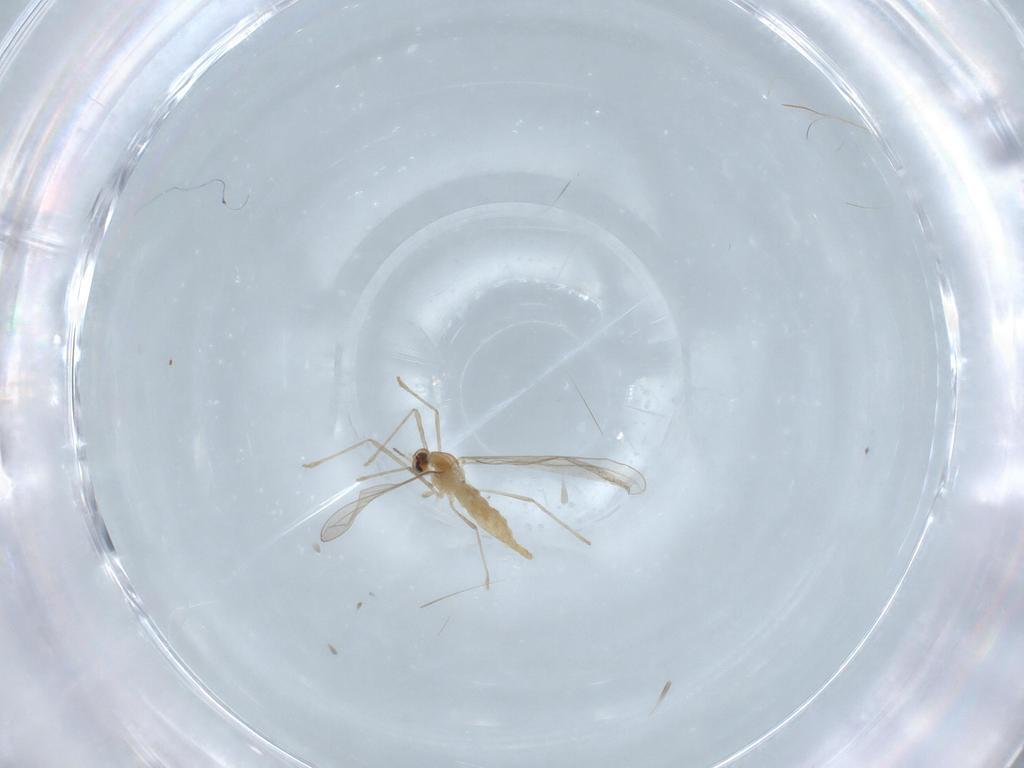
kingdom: Animalia
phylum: Arthropoda
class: Insecta
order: Diptera
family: Cecidomyiidae
